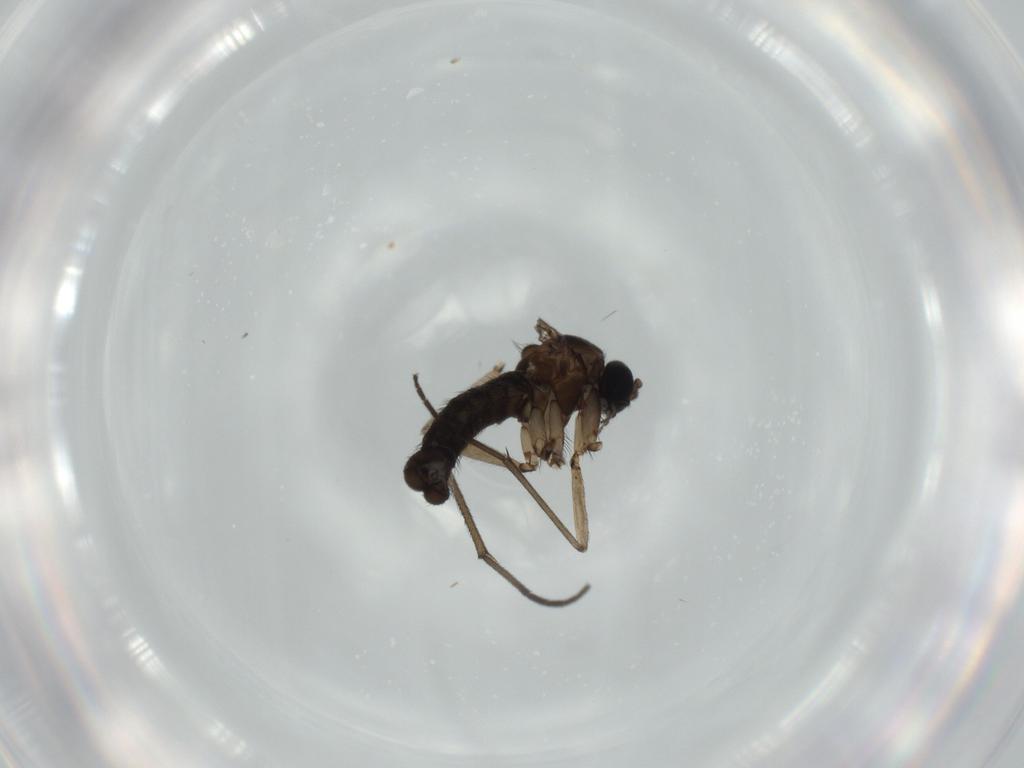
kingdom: Animalia
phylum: Arthropoda
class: Insecta
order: Diptera
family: Sciaridae
